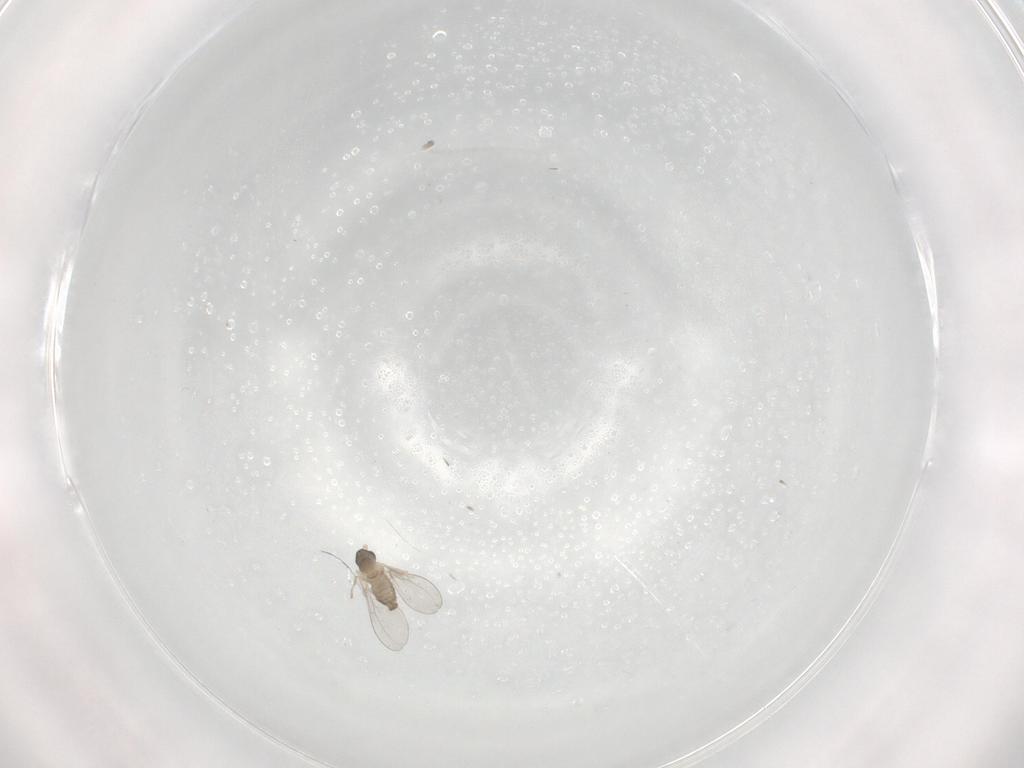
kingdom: Animalia
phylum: Arthropoda
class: Insecta
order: Diptera
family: Cecidomyiidae
